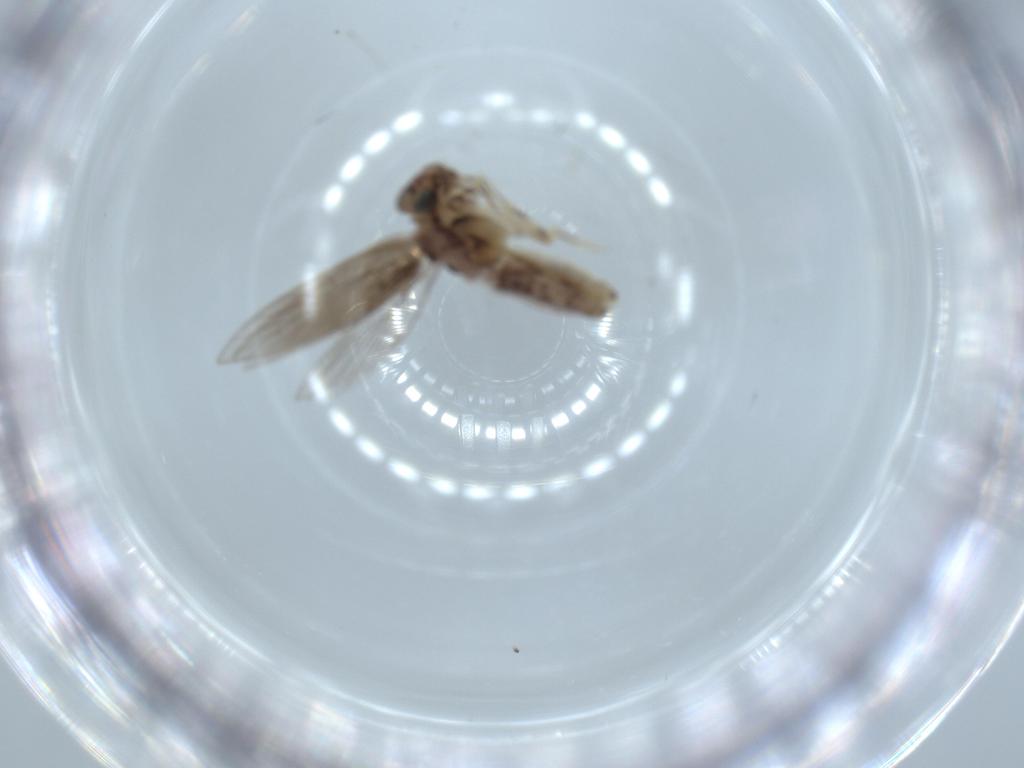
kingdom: Animalia
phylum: Arthropoda
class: Insecta
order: Psocodea
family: Lepidopsocidae
